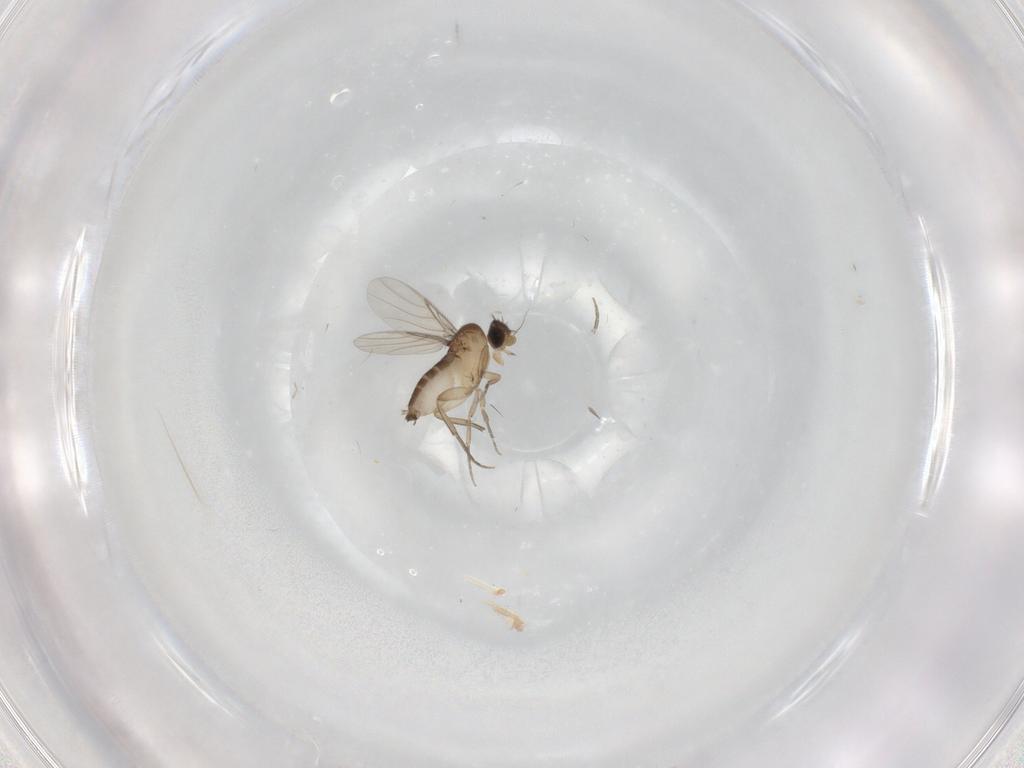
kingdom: Animalia
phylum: Arthropoda
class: Insecta
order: Diptera
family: Phoridae
